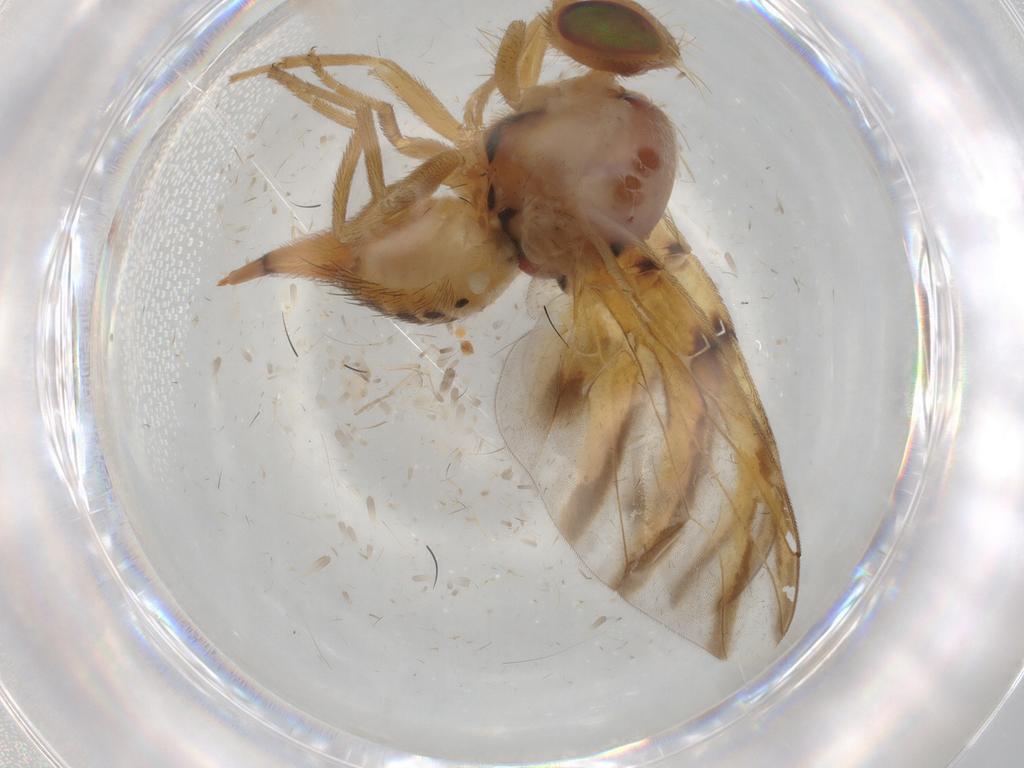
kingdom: Animalia
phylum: Arthropoda
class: Insecta
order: Diptera
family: Tephritidae
